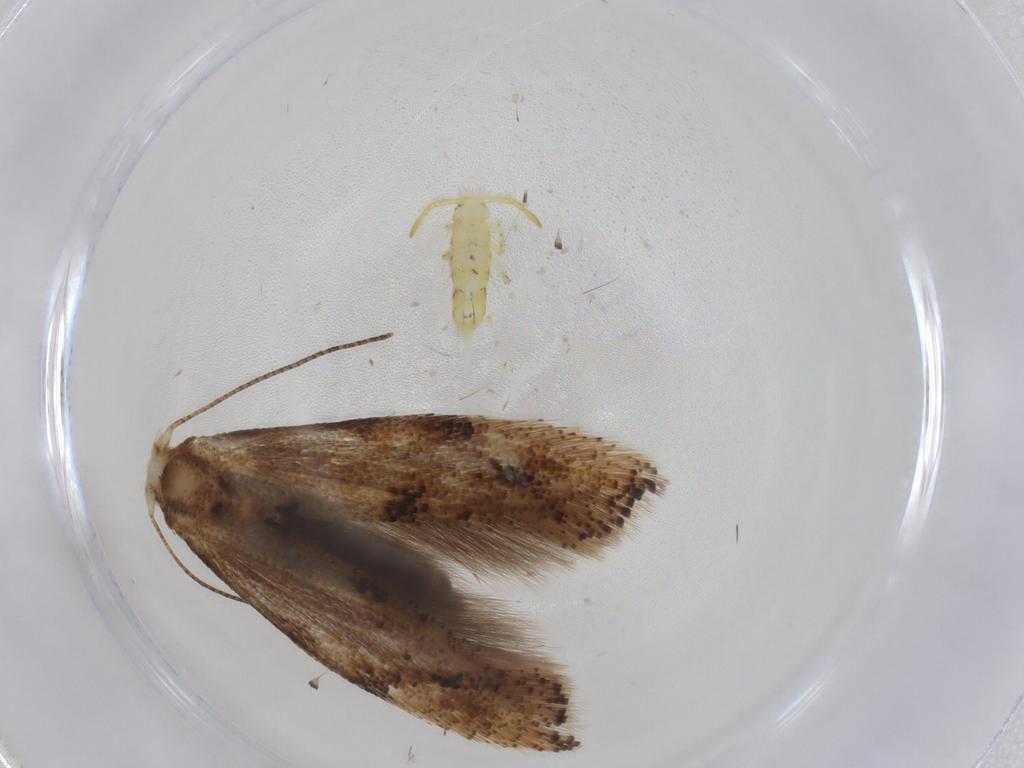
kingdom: Animalia
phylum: Arthropoda
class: Insecta
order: Lepidoptera
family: Bucculatricidae
